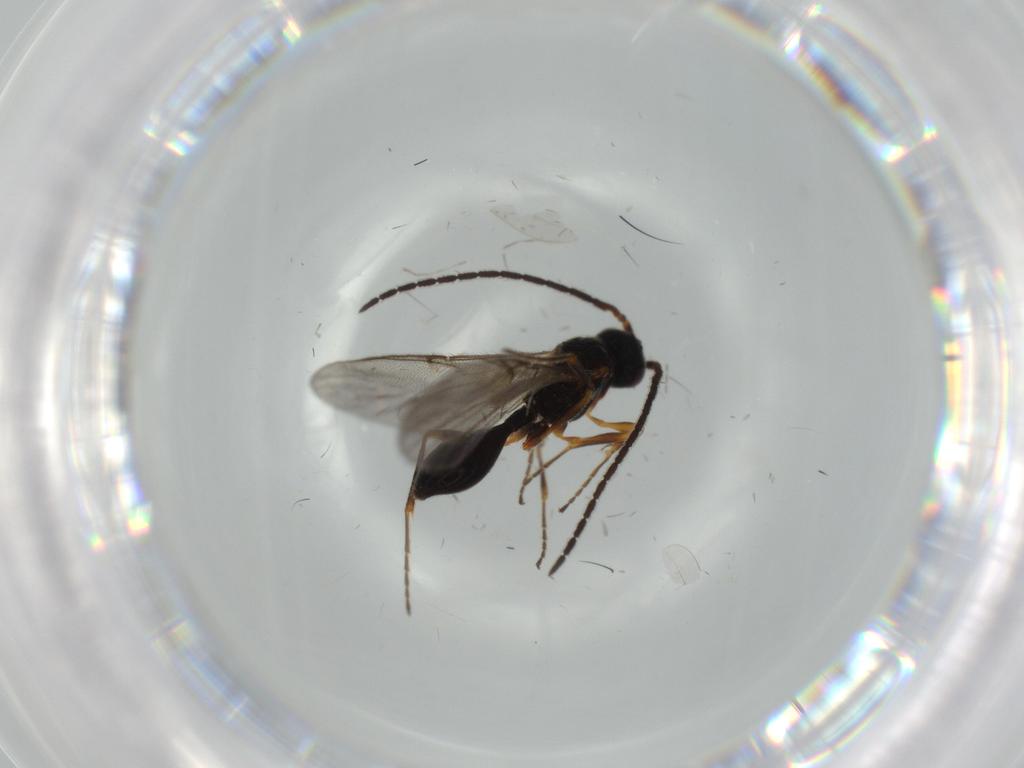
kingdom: Animalia
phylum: Arthropoda
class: Insecta
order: Hymenoptera
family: Diapriidae
